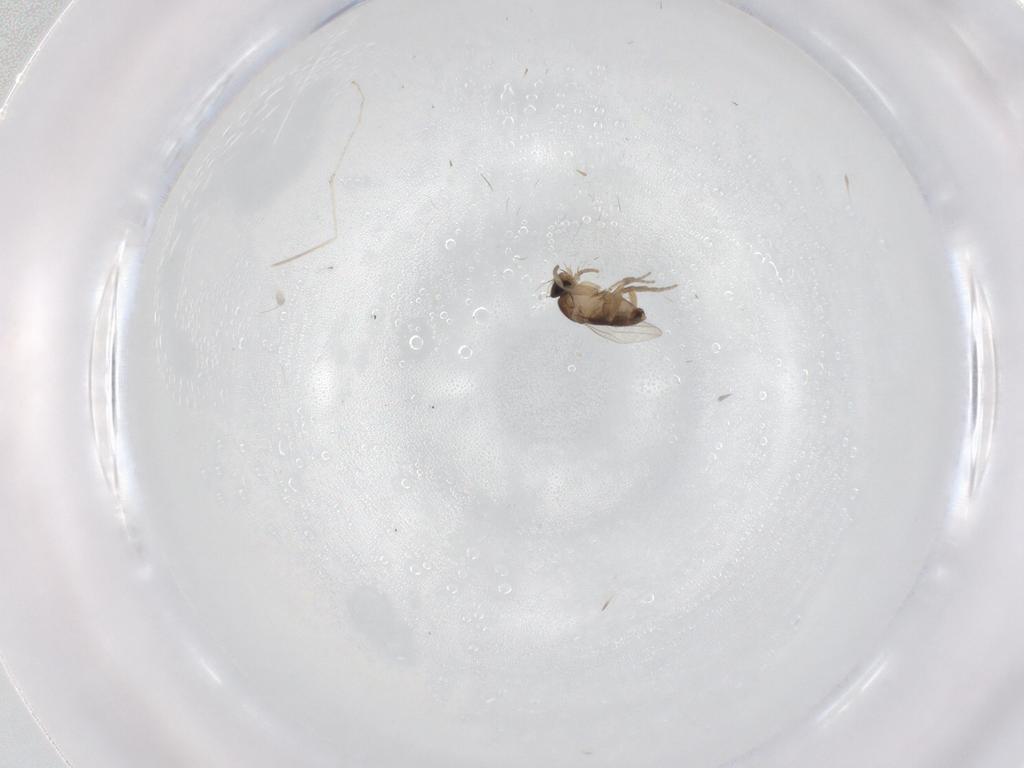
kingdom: Animalia
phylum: Arthropoda
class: Insecta
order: Diptera
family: Phoridae
